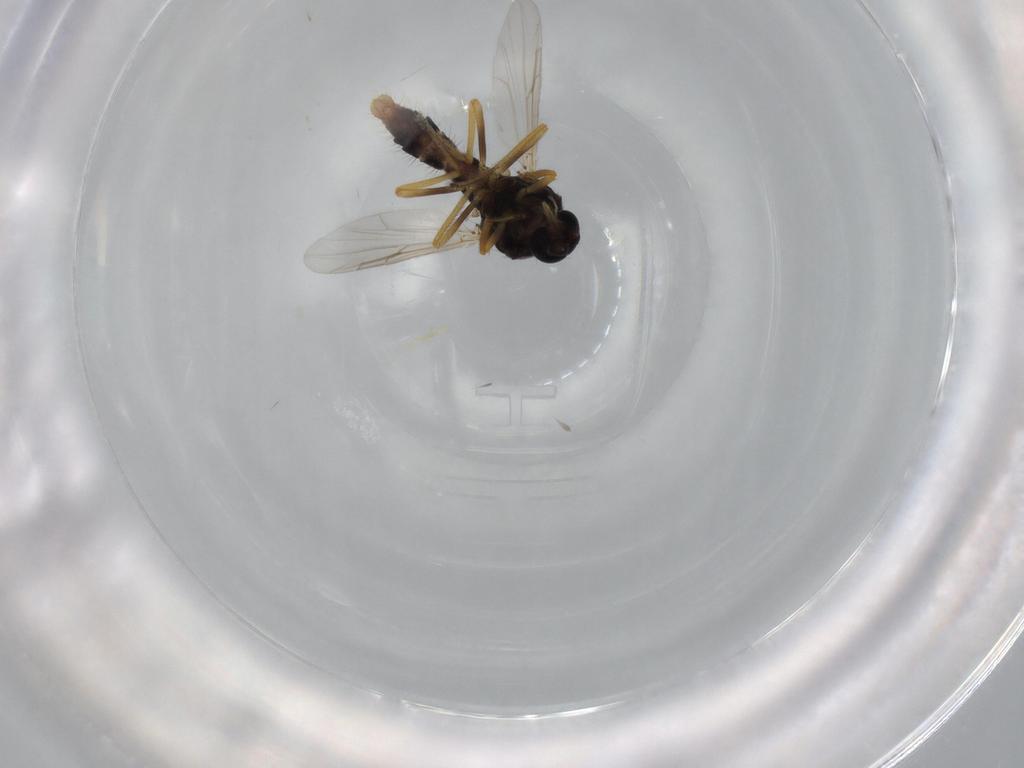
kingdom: Animalia
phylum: Arthropoda
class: Insecta
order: Diptera
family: Ceratopogonidae
